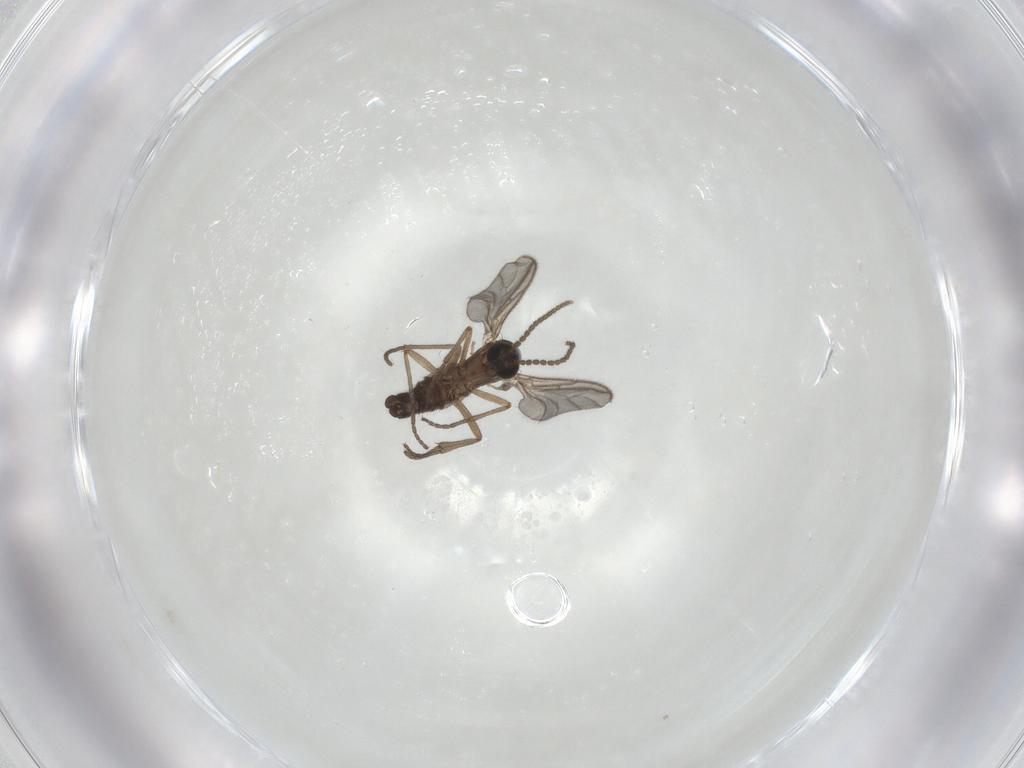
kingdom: Animalia
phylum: Arthropoda
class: Insecta
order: Diptera
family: Sciaridae
